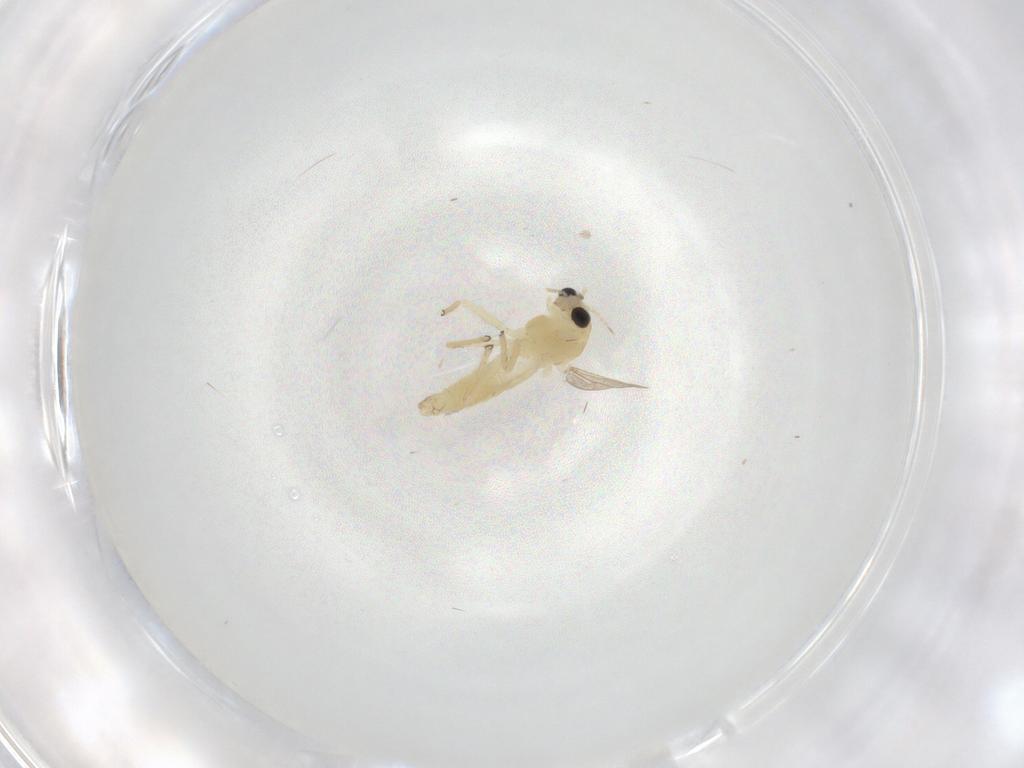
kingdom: Animalia
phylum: Arthropoda
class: Insecta
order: Diptera
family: Chironomidae
